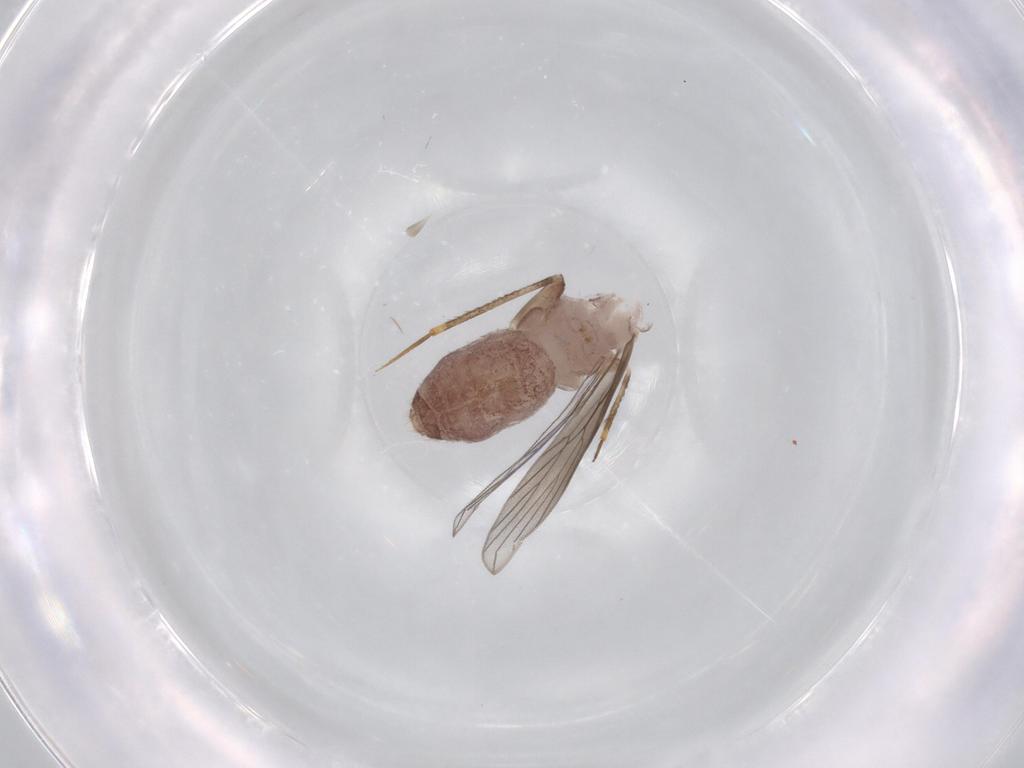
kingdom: Animalia
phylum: Arthropoda
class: Insecta
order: Psocodea
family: Lepidopsocidae
